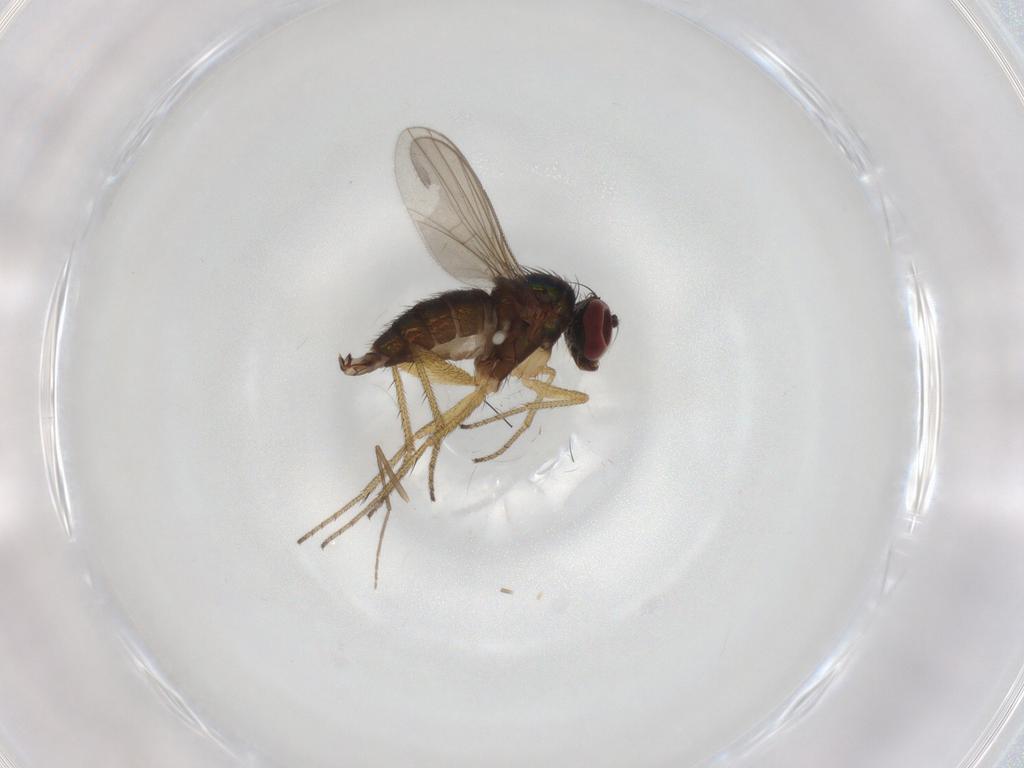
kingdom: Animalia
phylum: Arthropoda
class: Insecta
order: Diptera
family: Chironomidae
